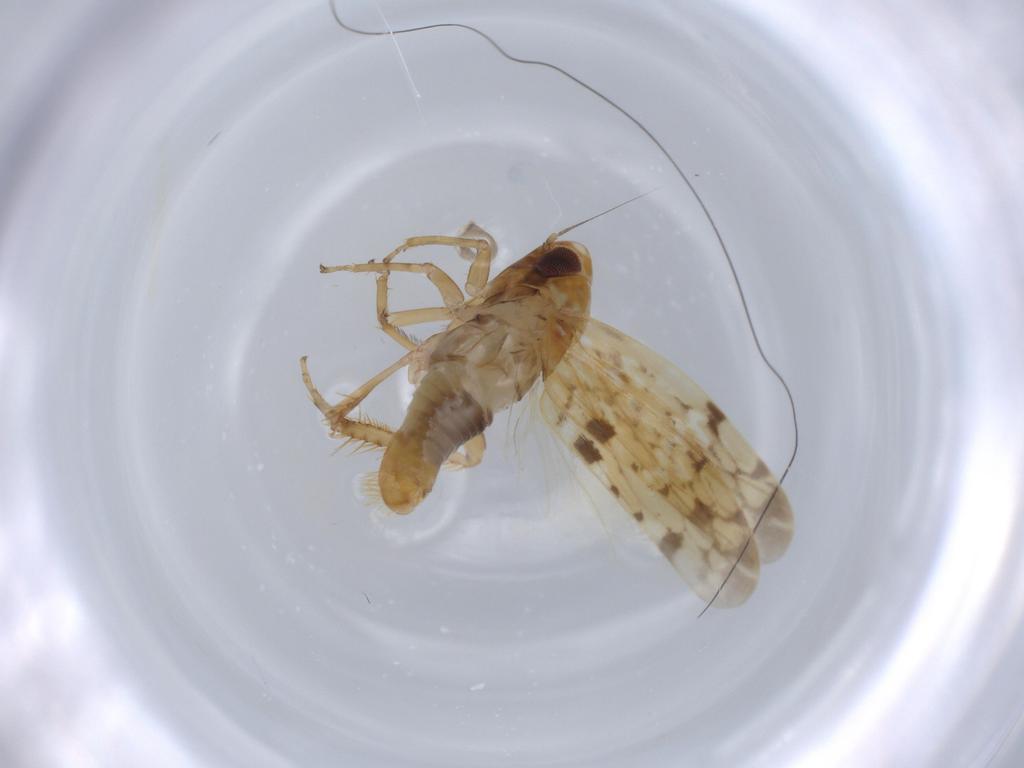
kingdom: Animalia
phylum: Arthropoda
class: Insecta
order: Hemiptera
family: Cicadellidae
